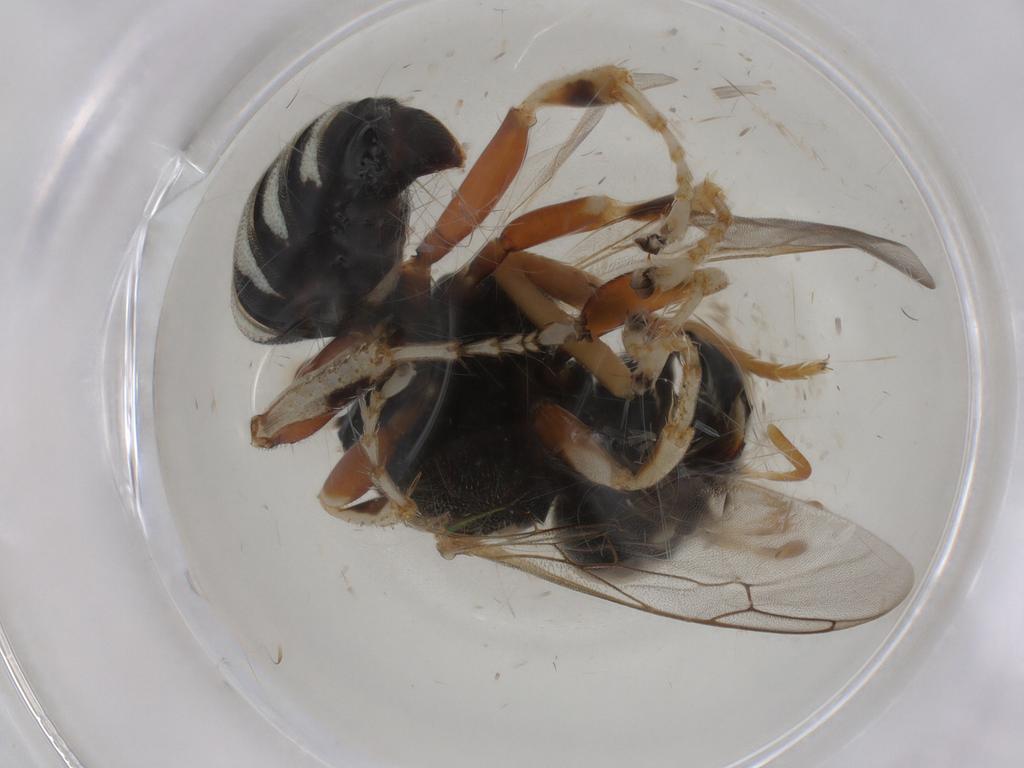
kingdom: Animalia
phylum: Arthropoda
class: Insecta
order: Hymenoptera
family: Crabronidae
